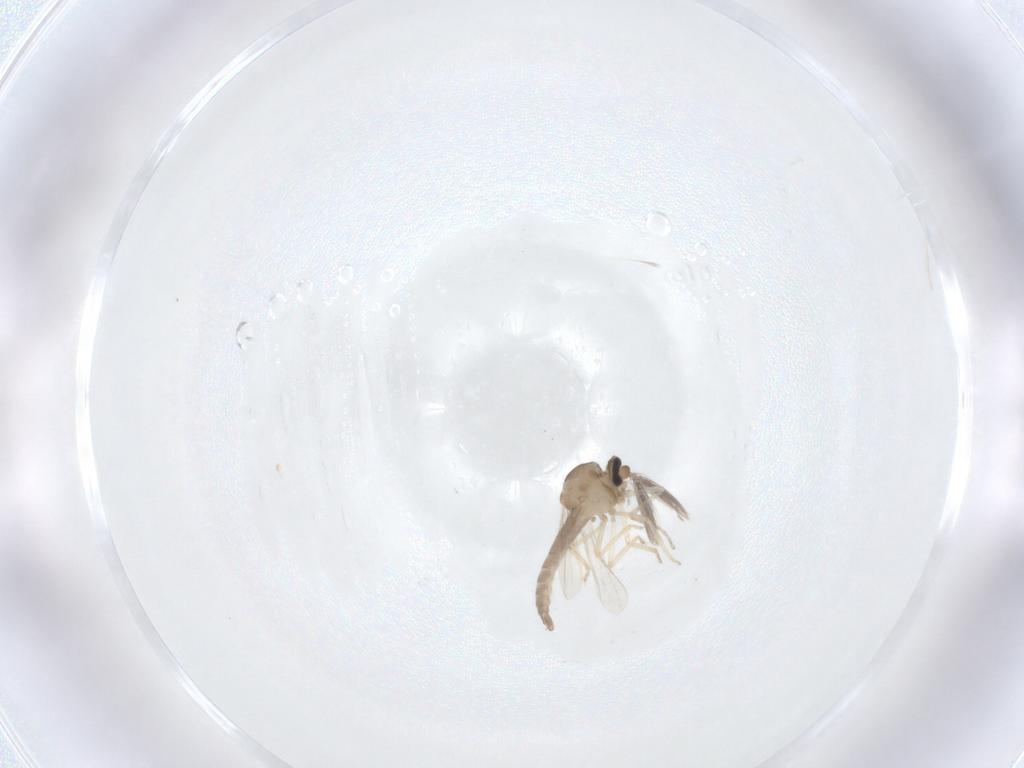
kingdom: Animalia
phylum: Arthropoda
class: Insecta
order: Diptera
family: Ceratopogonidae
